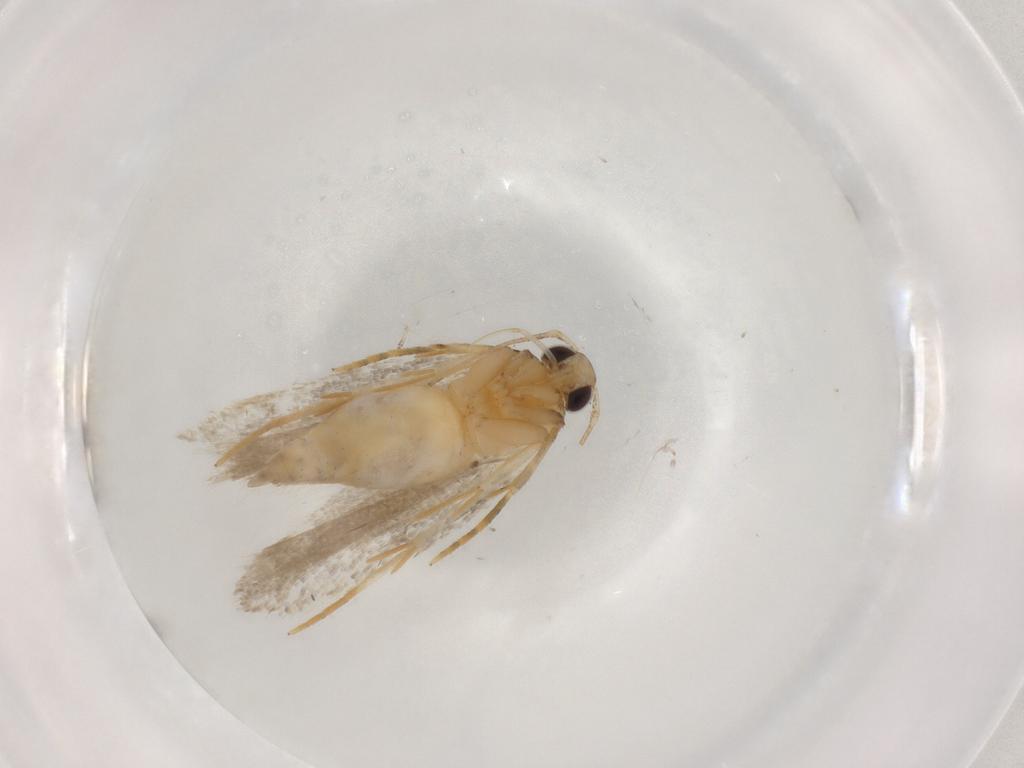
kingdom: Animalia
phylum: Arthropoda
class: Insecta
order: Lepidoptera
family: Autostichidae
